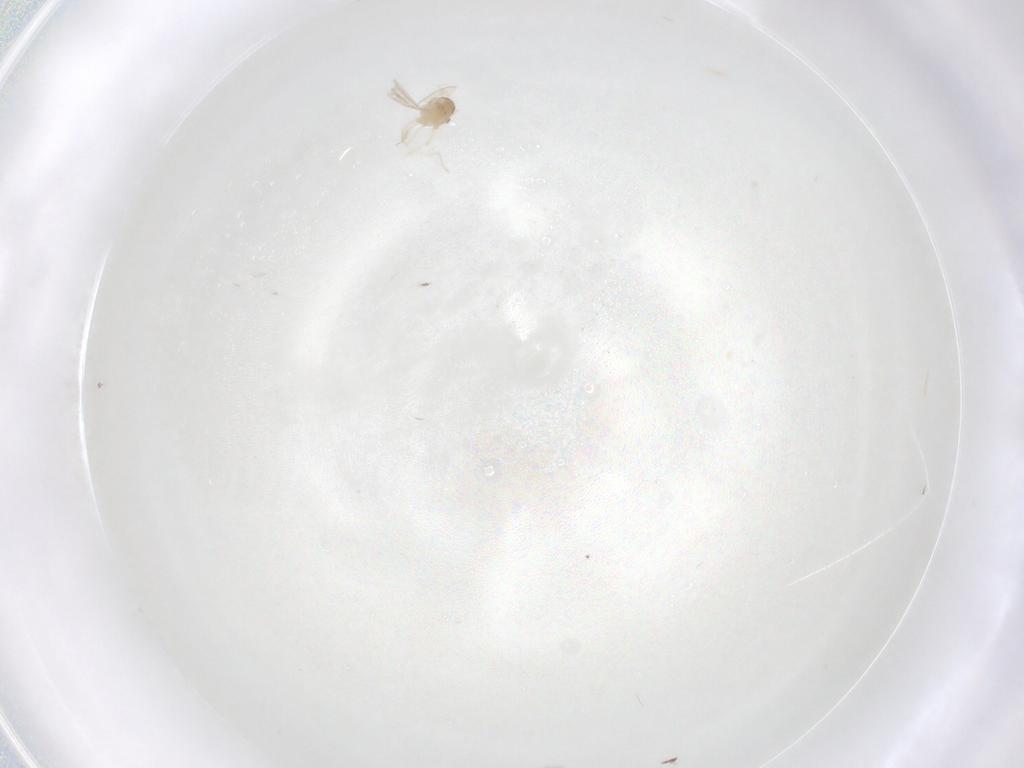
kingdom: Animalia
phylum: Arthropoda
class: Insecta
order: Diptera
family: Cecidomyiidae
